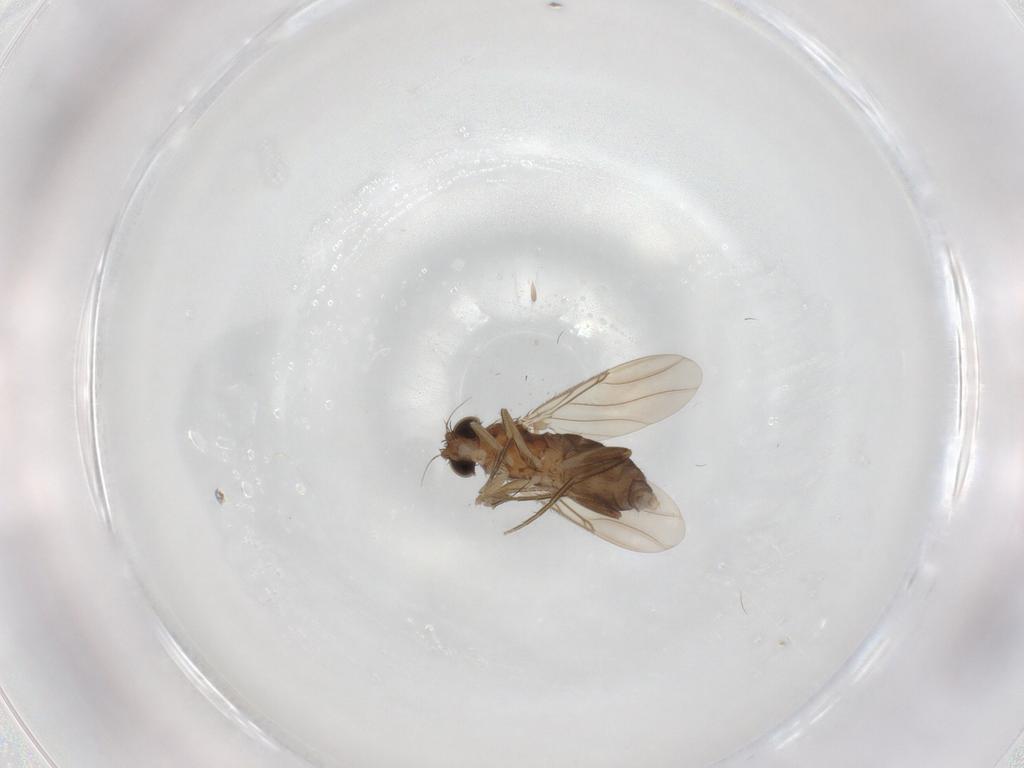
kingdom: Animalia
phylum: Arthropoda
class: Insecta
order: Diptera
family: Phoridae
